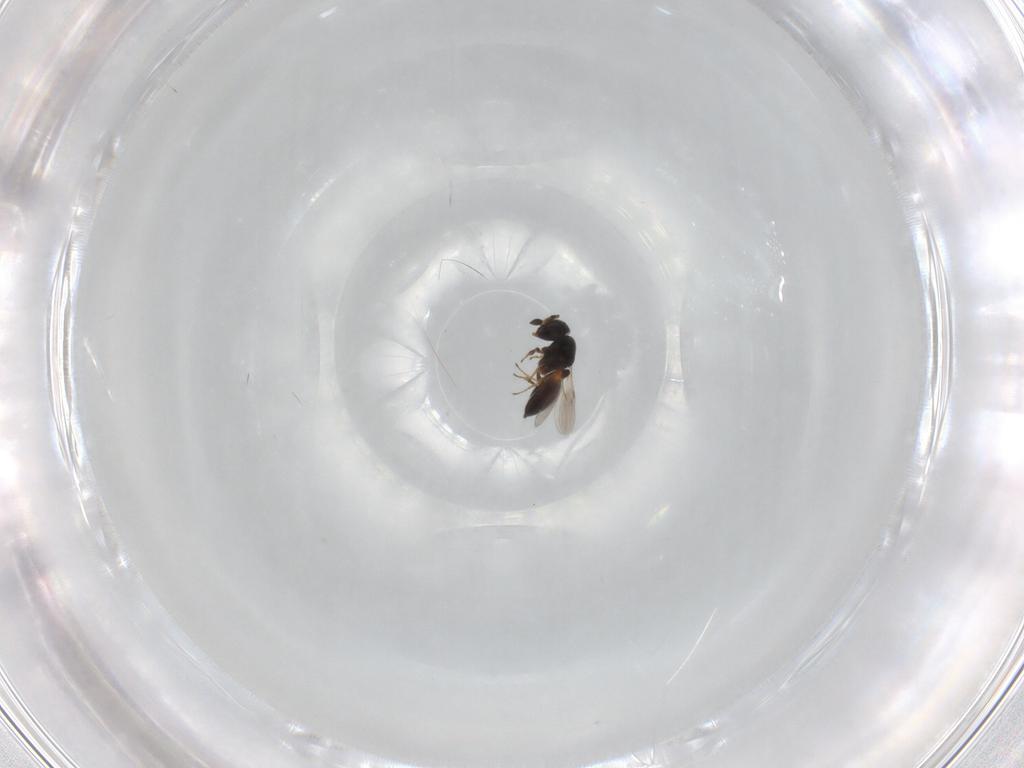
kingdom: Animalia
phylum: Arthropoda
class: Insecta
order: Hymenoptera
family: Scelionidae
